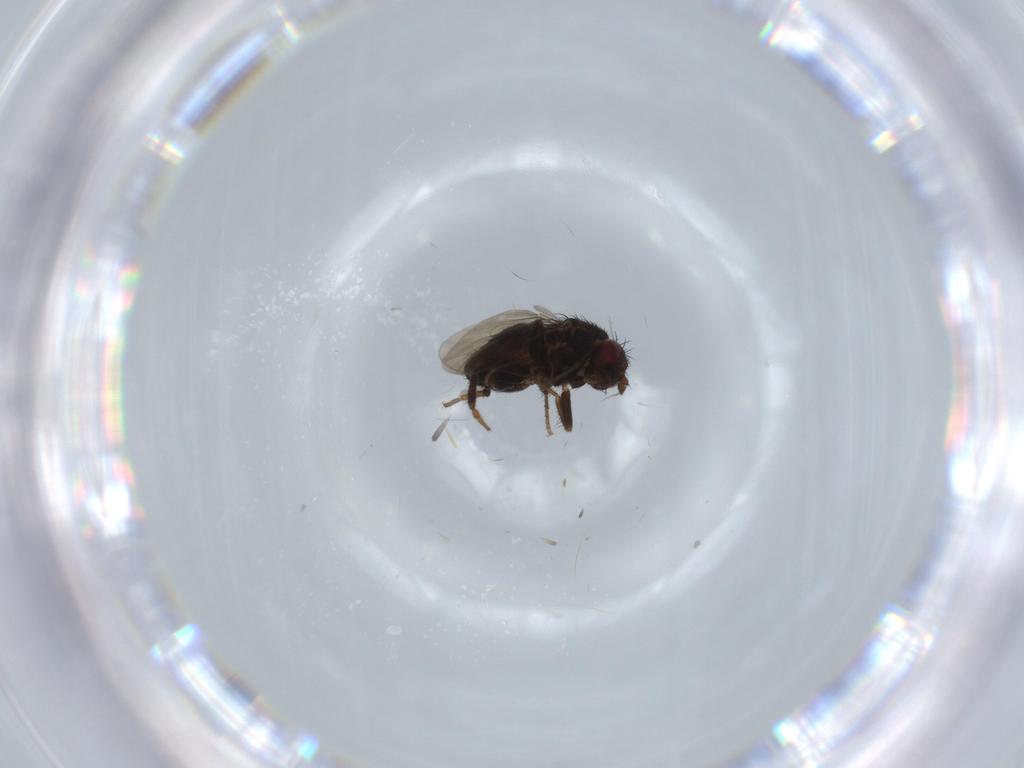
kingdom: Animalia
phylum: Arthropoda
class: Insecta
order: Diptera
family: Sphaeroceridae
